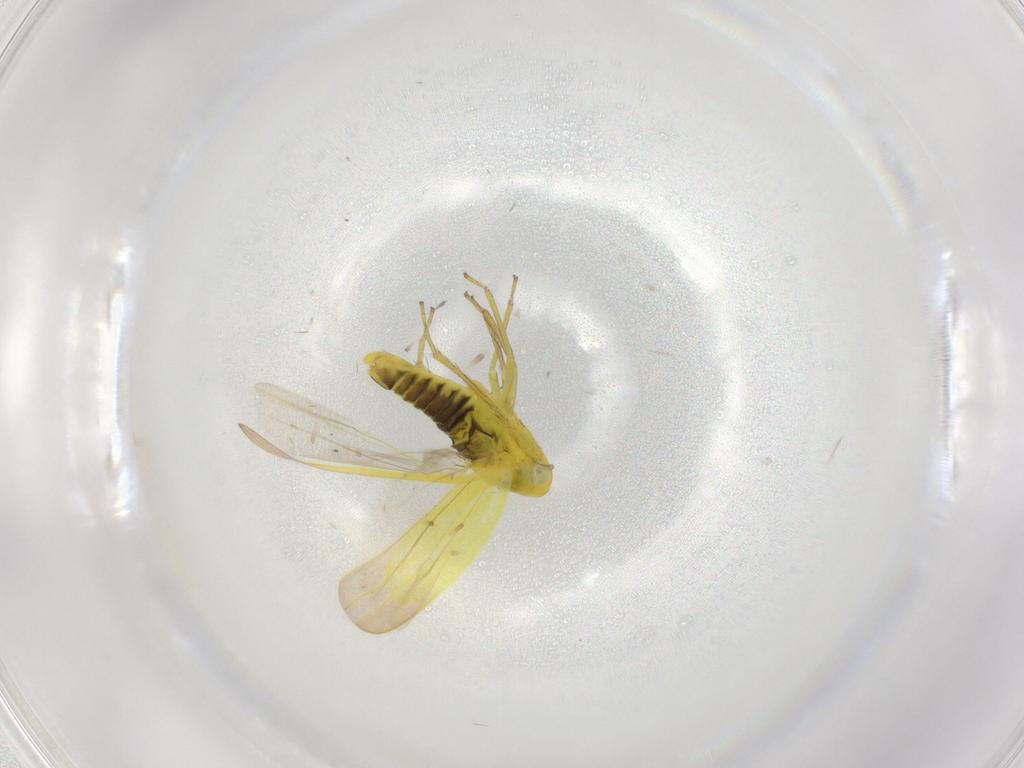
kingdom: Animalia
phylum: Arthropoda
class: Insecta
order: Hemiptera
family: Cicadellidae
